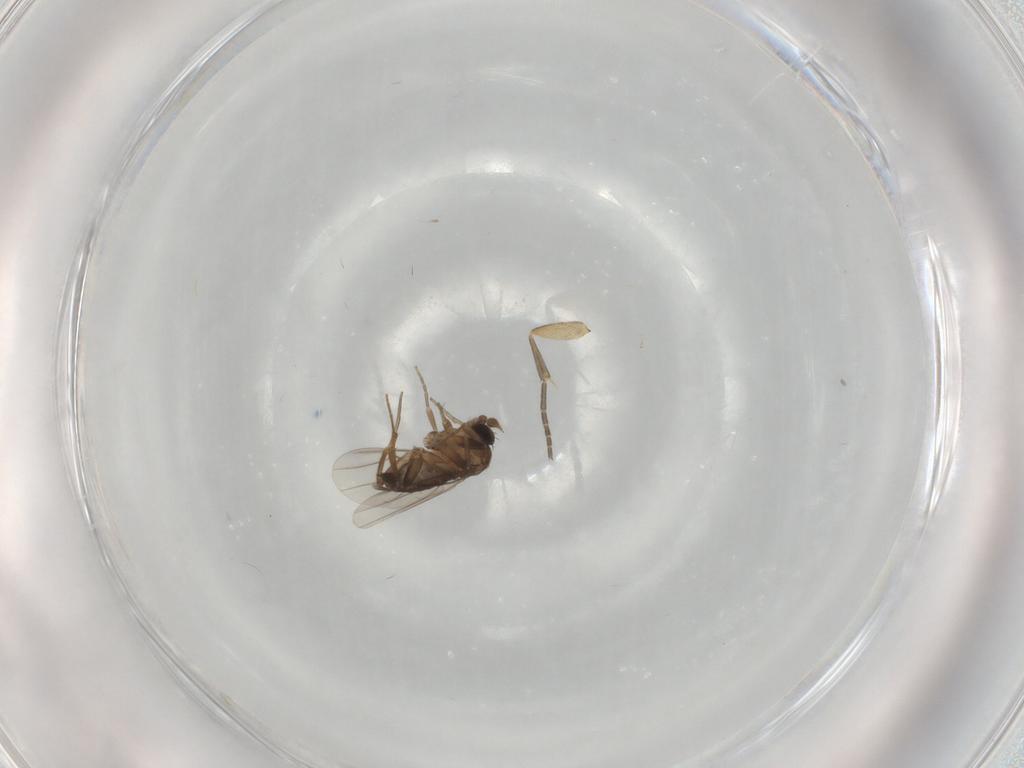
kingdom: Animalia
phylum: Arthropoda
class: Insecta
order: Diptera
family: Phoridae
